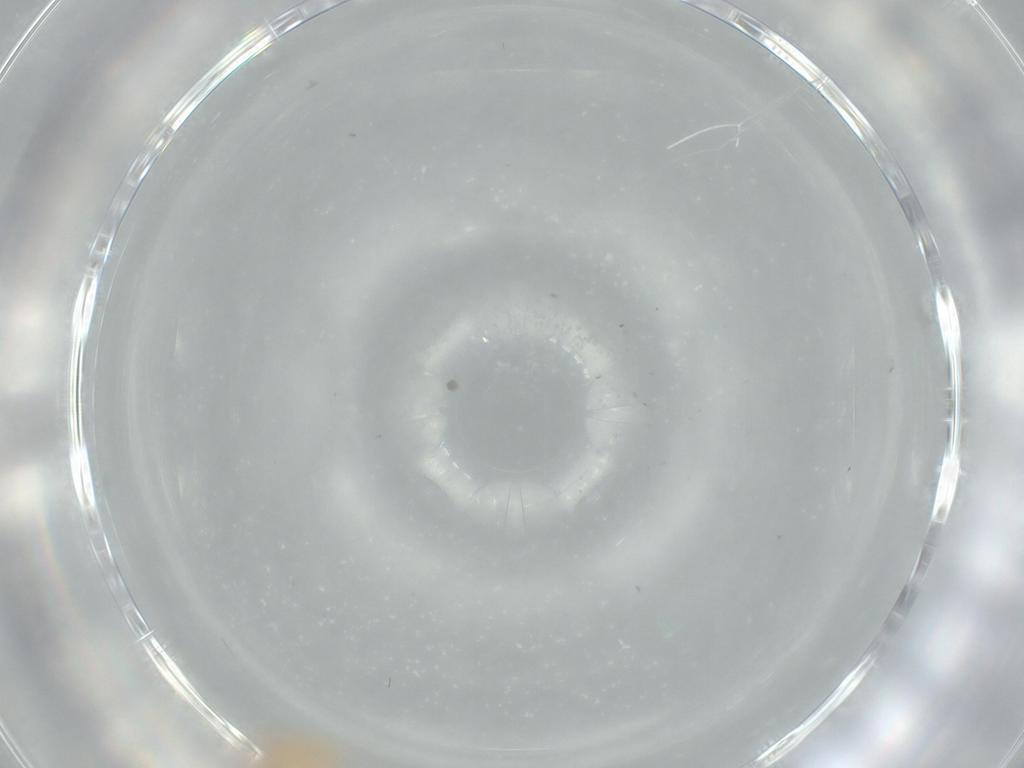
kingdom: Animalia
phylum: Arthropoda
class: Insecta
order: Hemiptera
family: Aleyrodidae
